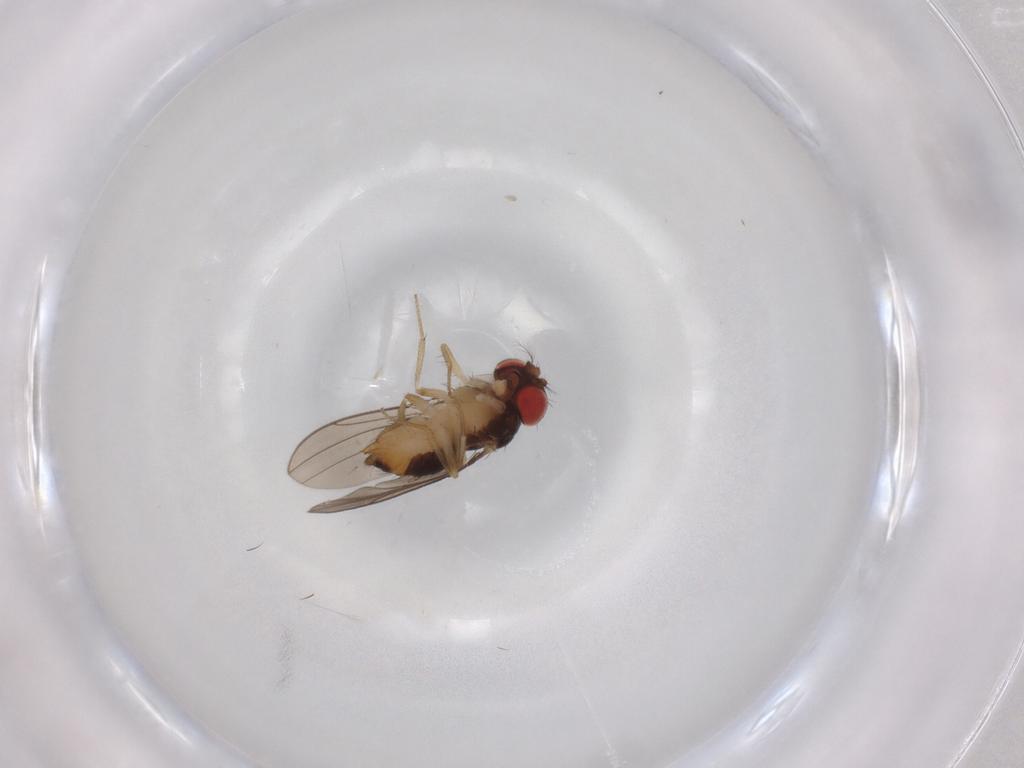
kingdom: Animalia
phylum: Arthropoda
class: Insecta
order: Diptera
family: Drosophilidae
